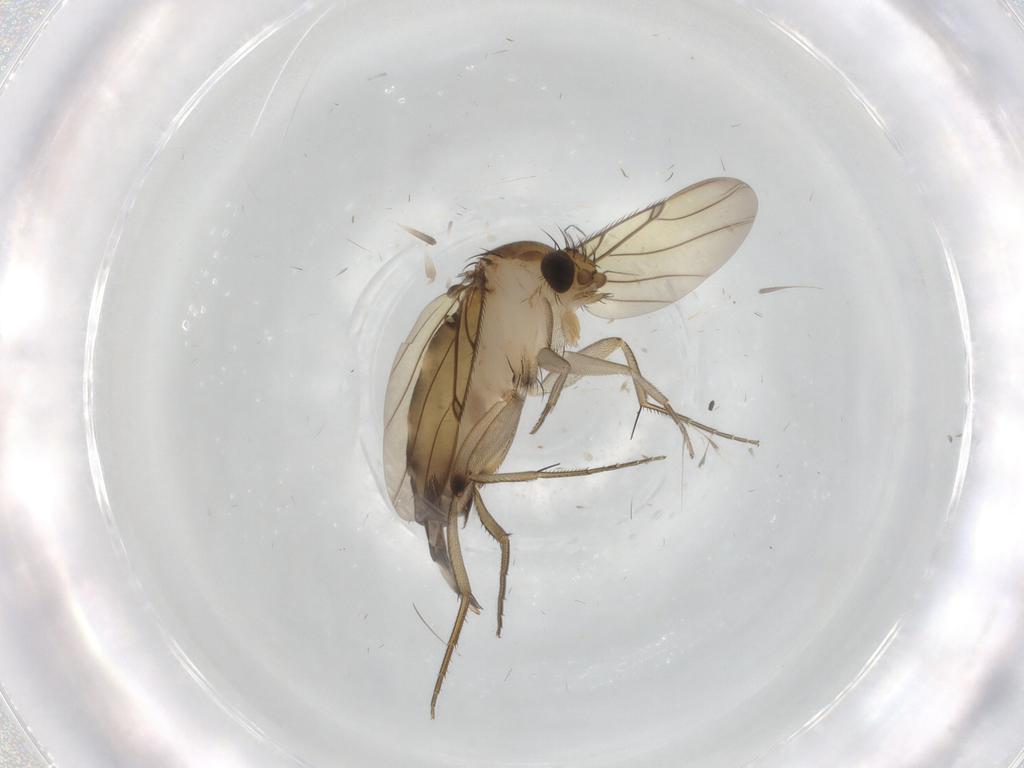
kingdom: Animalia
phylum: Arthropoda
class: Insecta
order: Diptera
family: Phoridae
